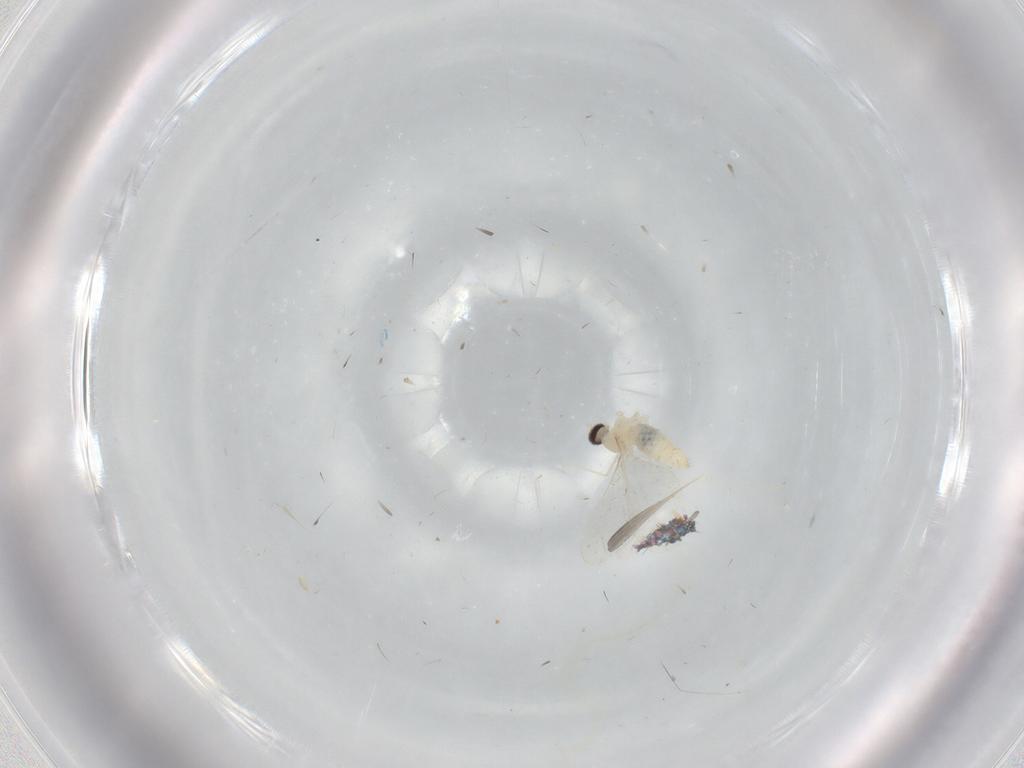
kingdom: Animalia
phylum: Arthropoda
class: Insecta
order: Diptera
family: Cecidomyiidae
